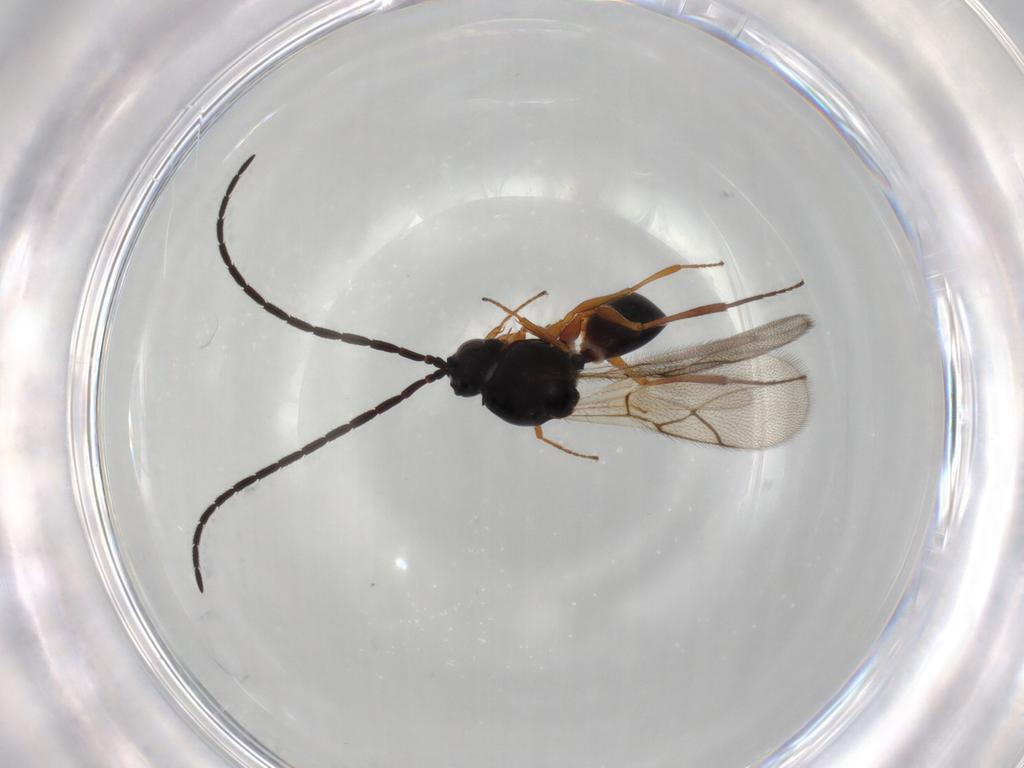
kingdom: Animalia
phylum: Arthropoda
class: Insecta
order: Hymenoptera
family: Figitidae
